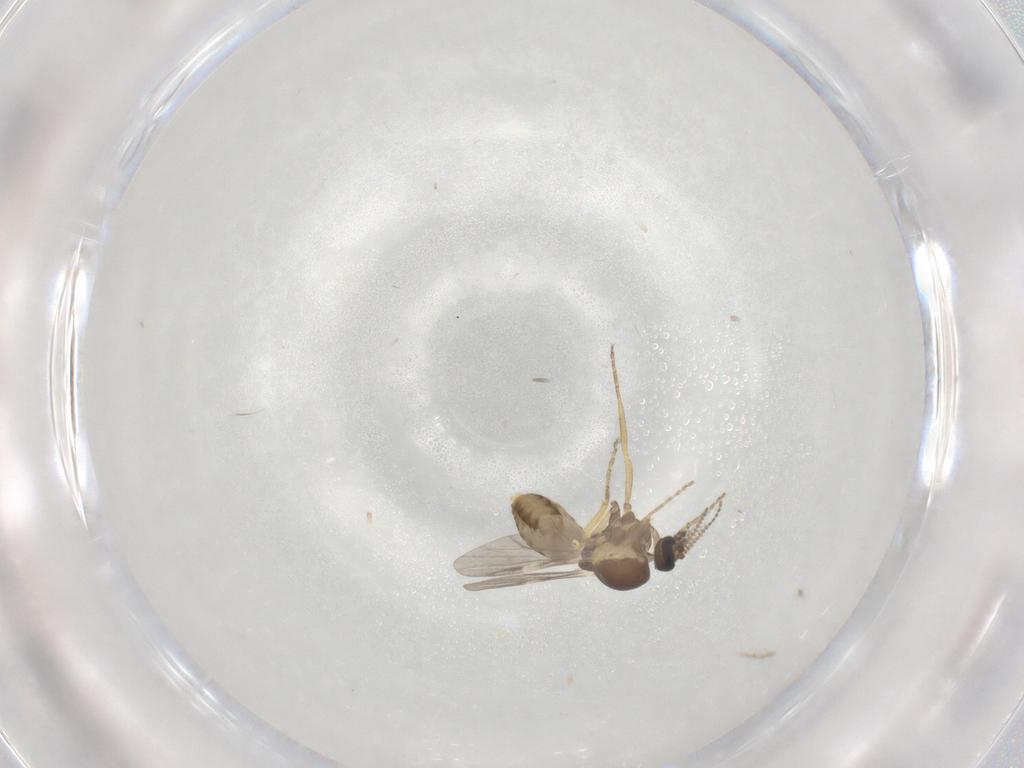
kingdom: Animalia
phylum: Arthropoda
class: Insecta
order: Diptera
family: Ceratopogonidae
